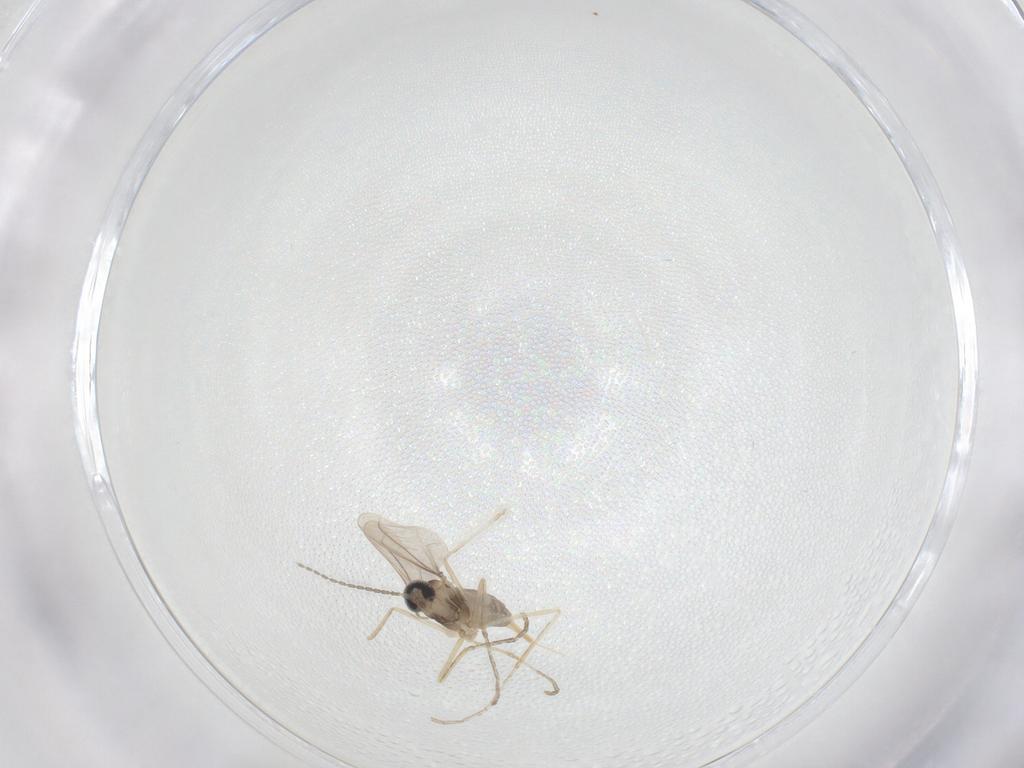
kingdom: Animalia
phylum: Arthropoda
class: Insecta
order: Diptera
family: Cecidomyiidae
